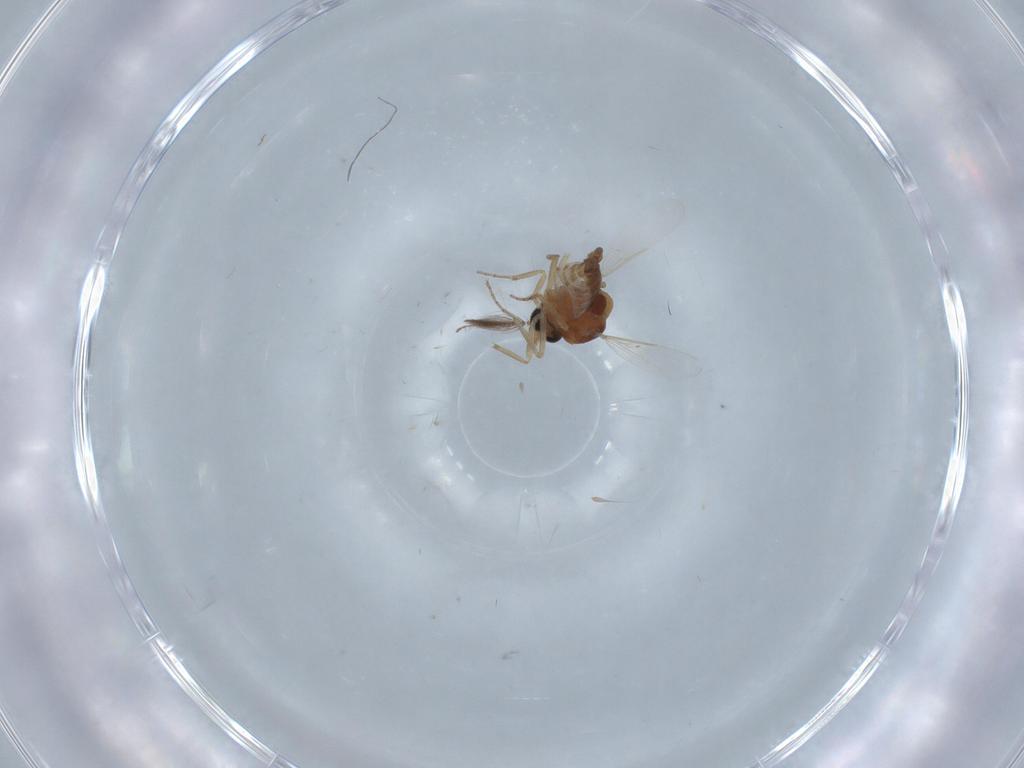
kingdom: Animalia
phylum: Arthropoda
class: Insecta
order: Diptera
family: Ceratopogonidae
